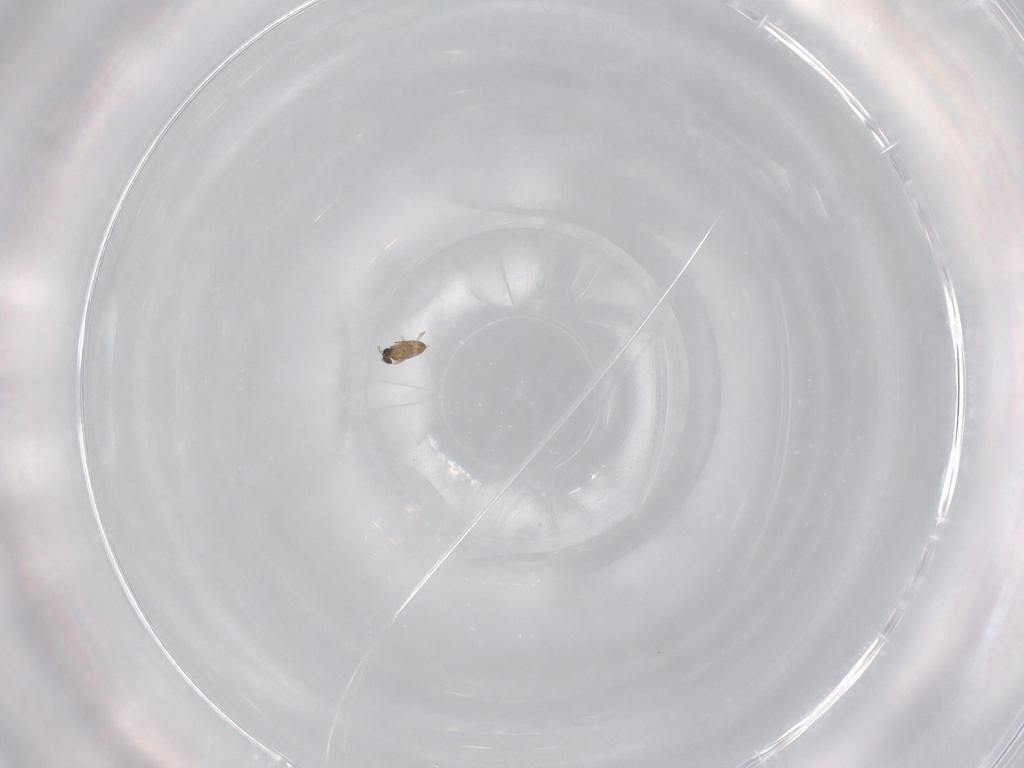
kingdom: Animalia
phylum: Arthropoda
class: Insecta
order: Hymenoptera
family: Mymaridae
